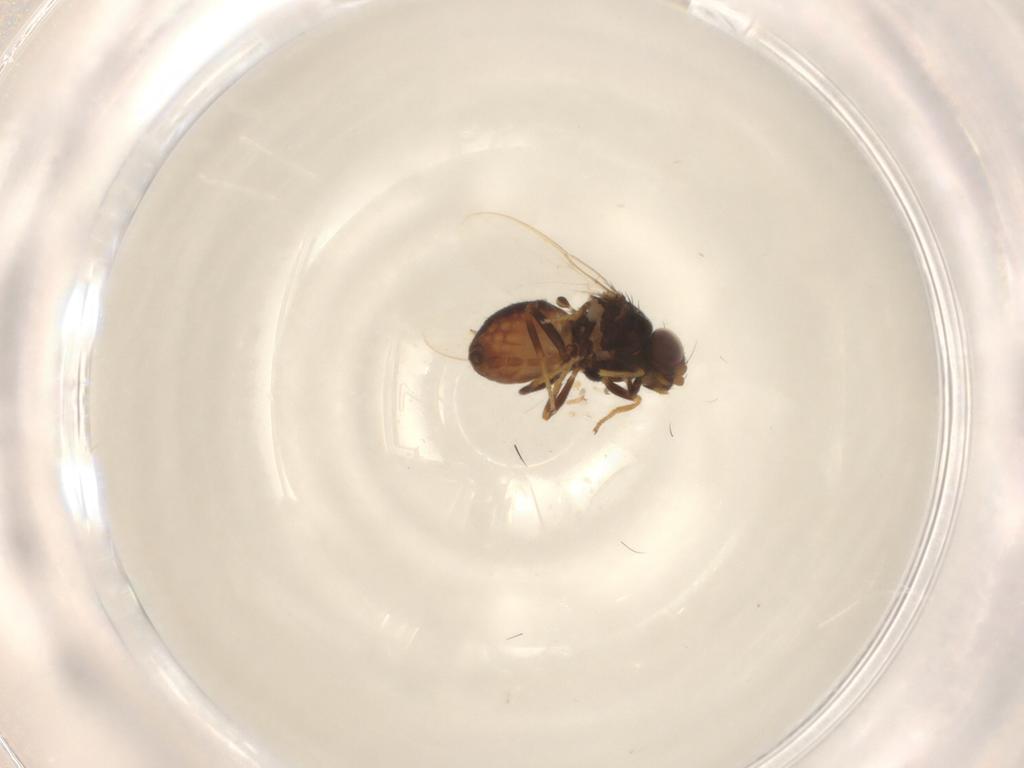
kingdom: Animalia
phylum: Arthropoda
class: Insecta
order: Diptera
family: Chloropidae
